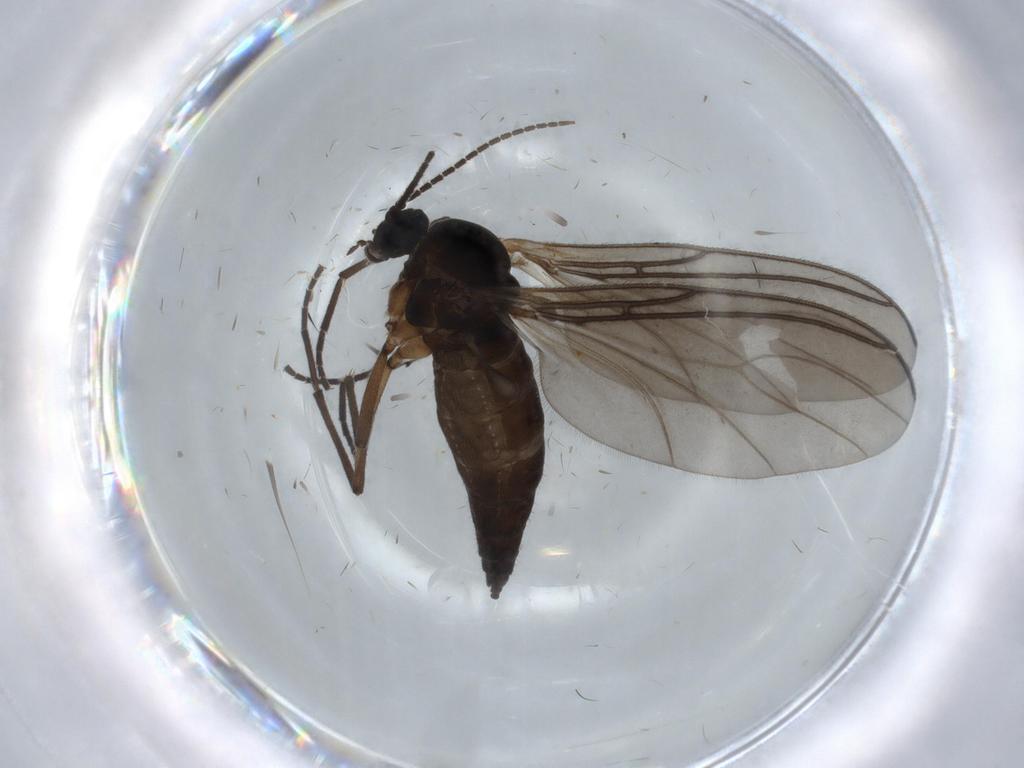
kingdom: Animalia
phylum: Arthropoda
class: Insecta
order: Diptera
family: Sciaridae
